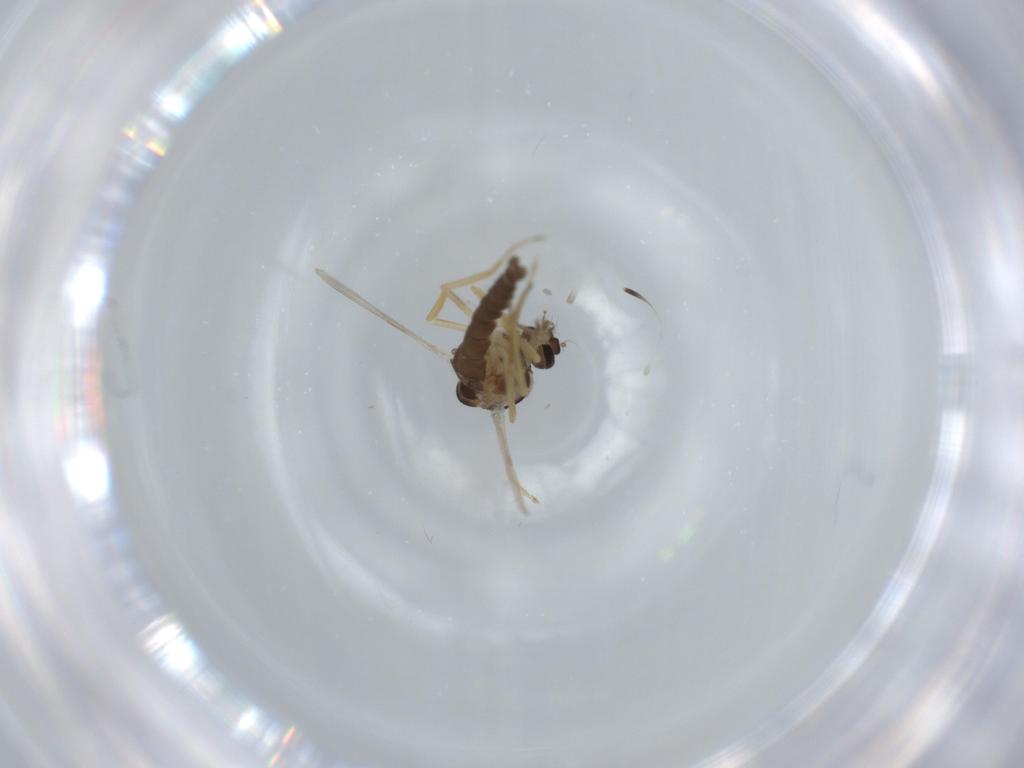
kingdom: Animalia
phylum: Arthropoda
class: Insecta
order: Diptera
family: Ceratopogonidae
